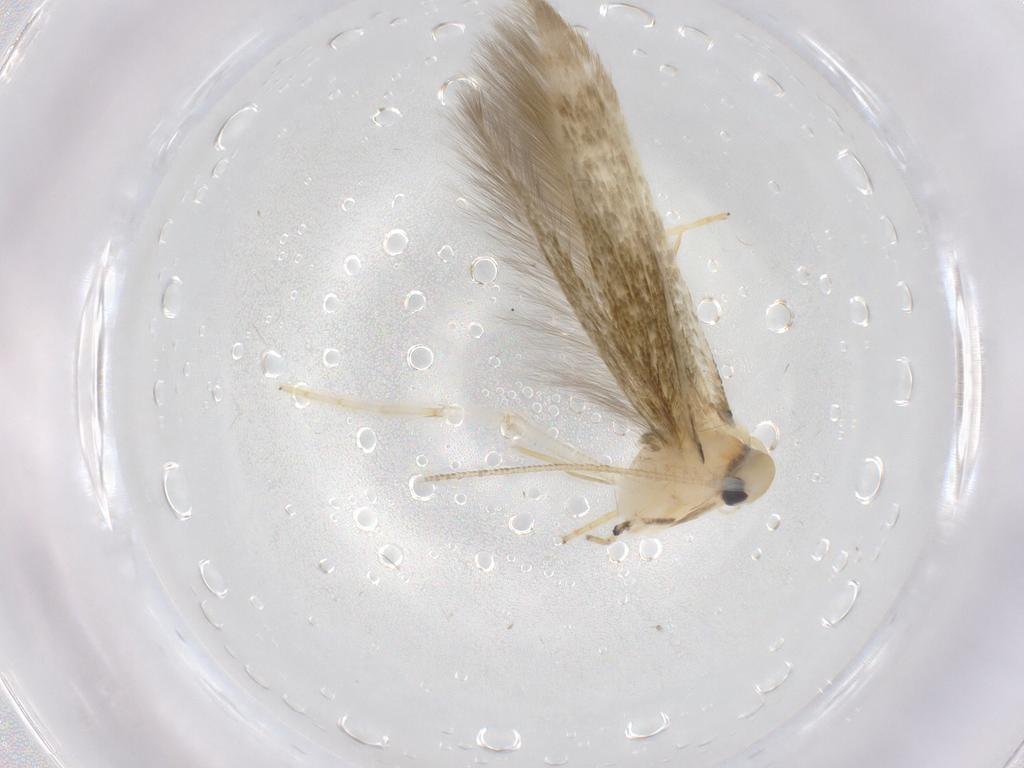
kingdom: Animalia
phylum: Arthropoda
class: Insecta
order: Lepidoptera
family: Stathmopodidae
